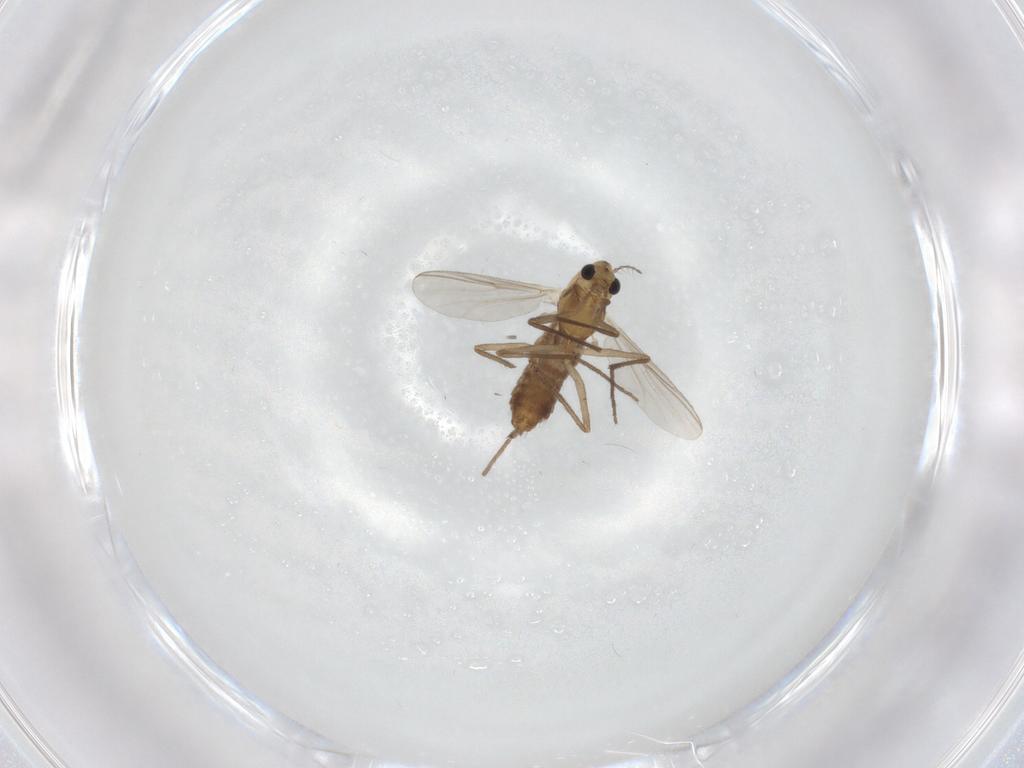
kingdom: Animalia
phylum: Arthropoda
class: Insecta
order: Diptera
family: Chironomidae
